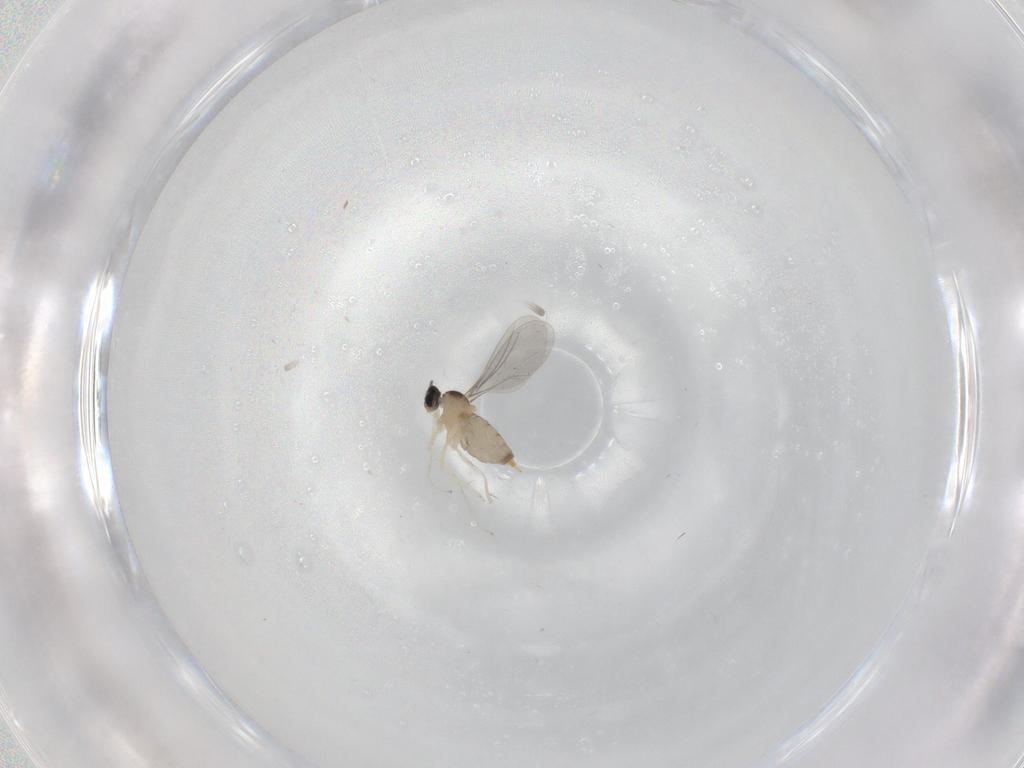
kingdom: Animalia
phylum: Arthropoda
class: Insecta
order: Diptera
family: Cecidomyiidae
